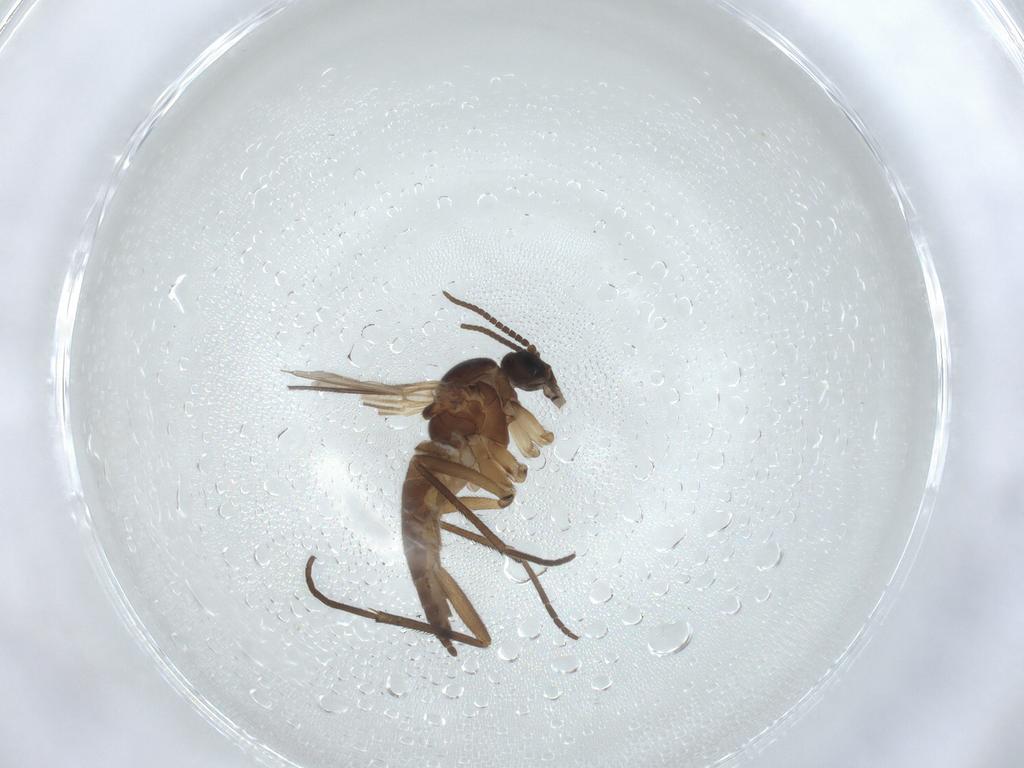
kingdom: Animalia
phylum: Arthropoda
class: Insecta
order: Diptera
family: Sciaridae
